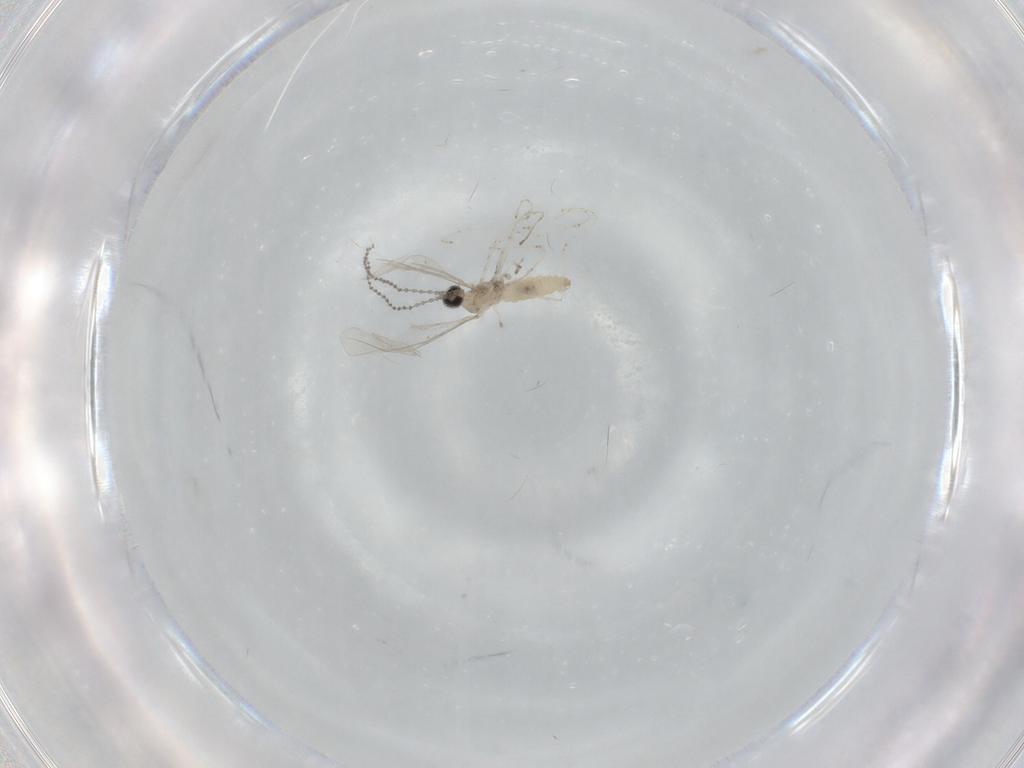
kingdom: Animalia
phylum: Arthropoda
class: Insecta
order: Diptera
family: Cecidomyiidae
